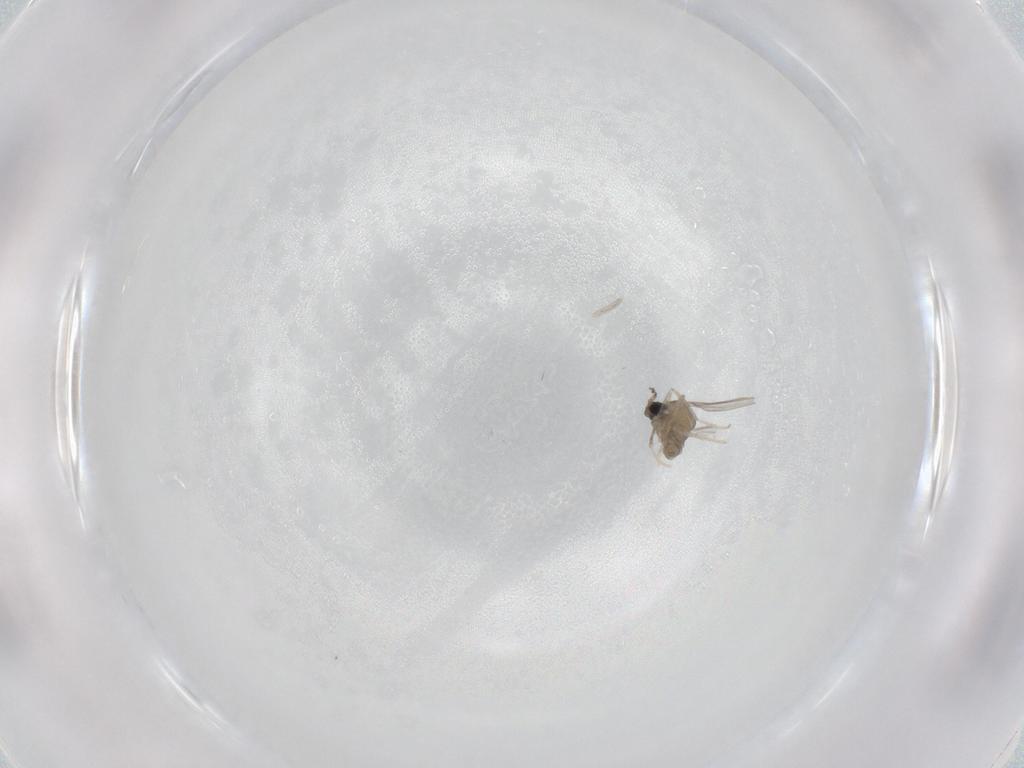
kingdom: Animalia
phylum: Arthropoda
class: Insecta
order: Diptera
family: Cecidomyiidae
